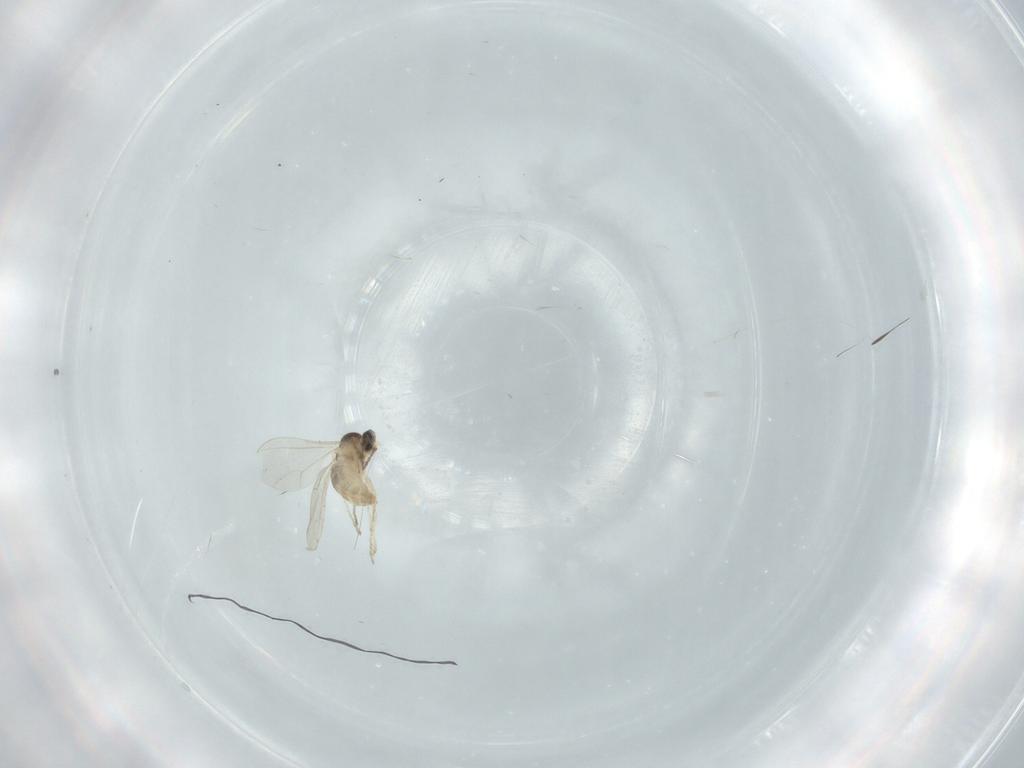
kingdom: Animalia
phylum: Arthropoda
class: Insecta
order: Diptera
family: Cecidomyiidae
